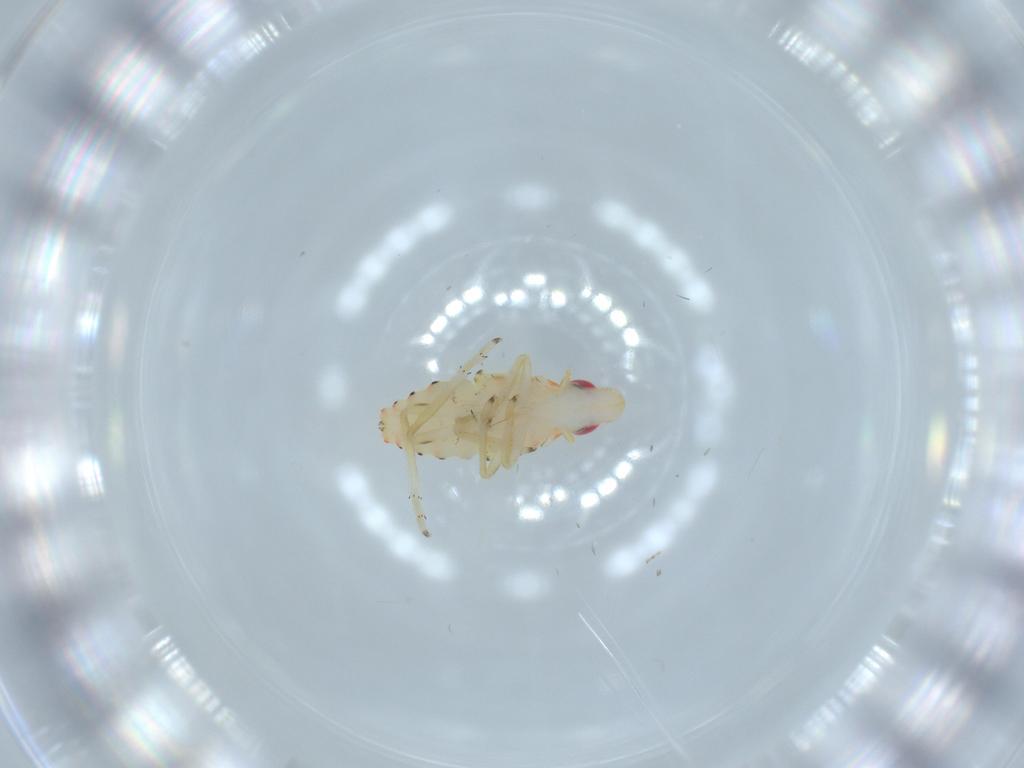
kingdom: Animalia
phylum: Arthropoda
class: Insecta
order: Hemiptera
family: Tropiduchidae
